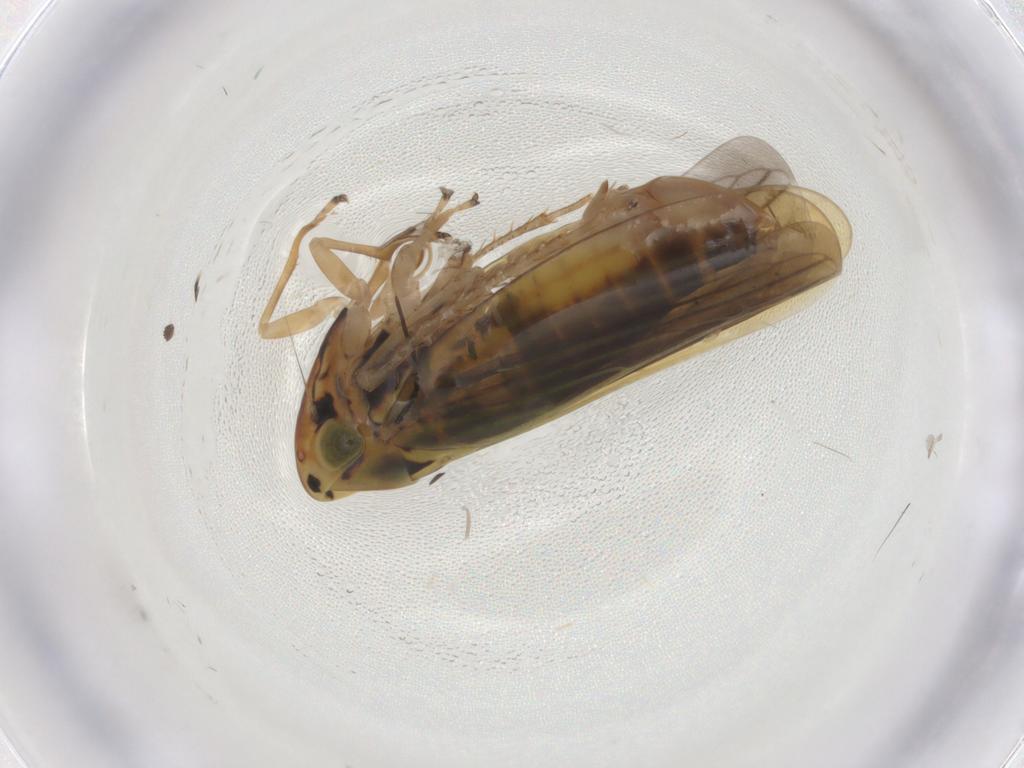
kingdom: Animalia
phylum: Arthropoda
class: Insecta
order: Hemiptera
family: Cicadellidae
